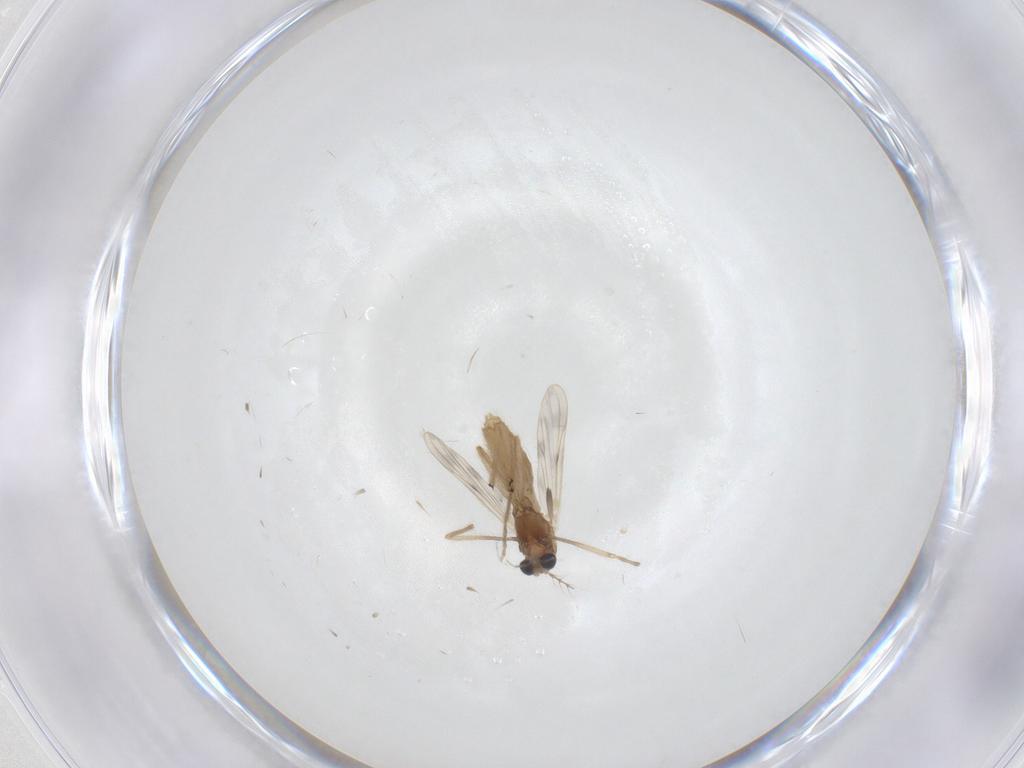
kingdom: Animalia
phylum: Arthropoda
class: Insecta
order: Diptera
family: Chironomidae
